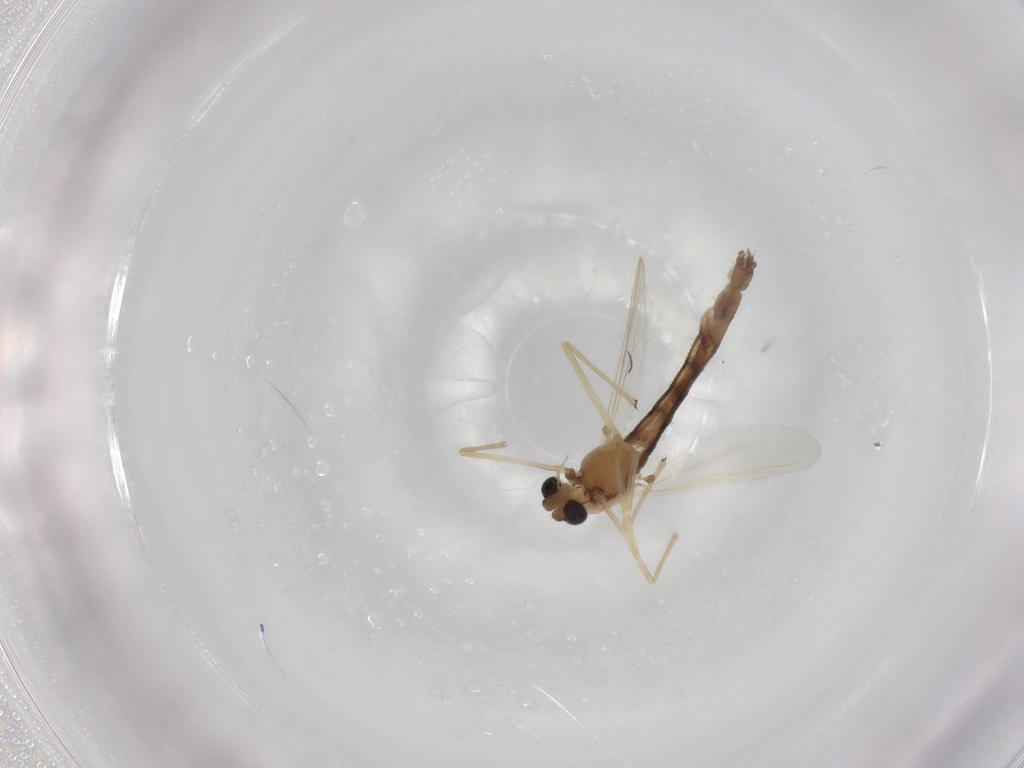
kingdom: Animalia
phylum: Arthropoda
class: Insecta
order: Diptera
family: Chironomidae
